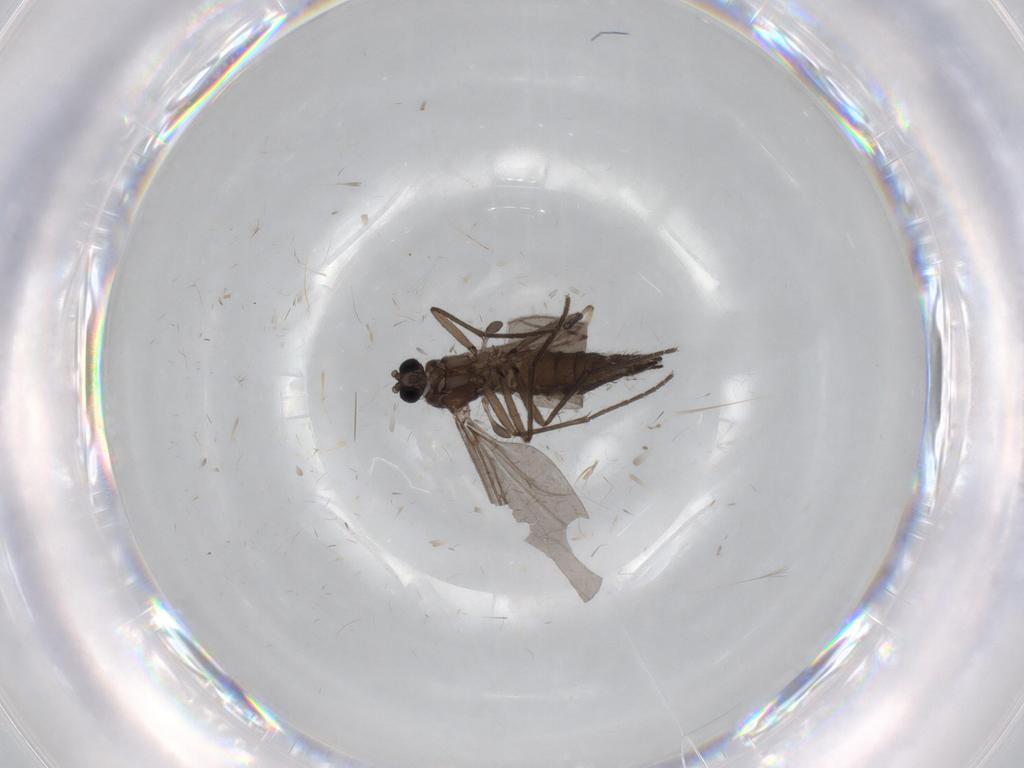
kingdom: Animalia
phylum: Arthropoda
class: Insecta
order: Diptera
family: Sciaridae
